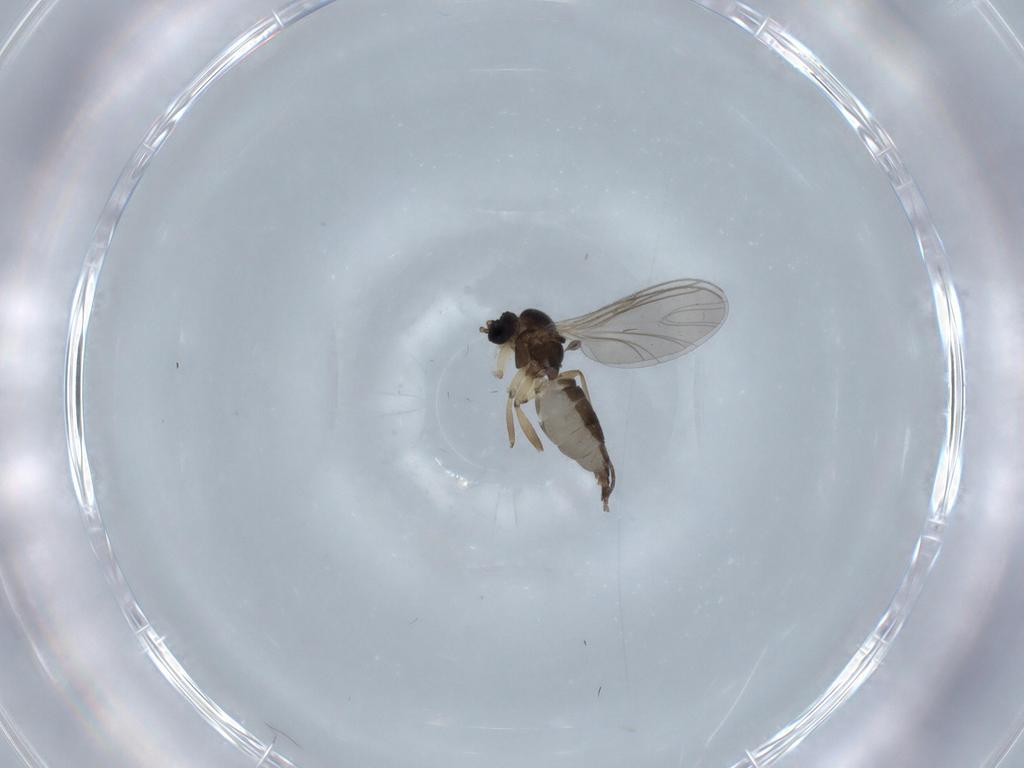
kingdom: Animalia
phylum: Arthropoda
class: Insecta
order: Diptera
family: Sciaridae
